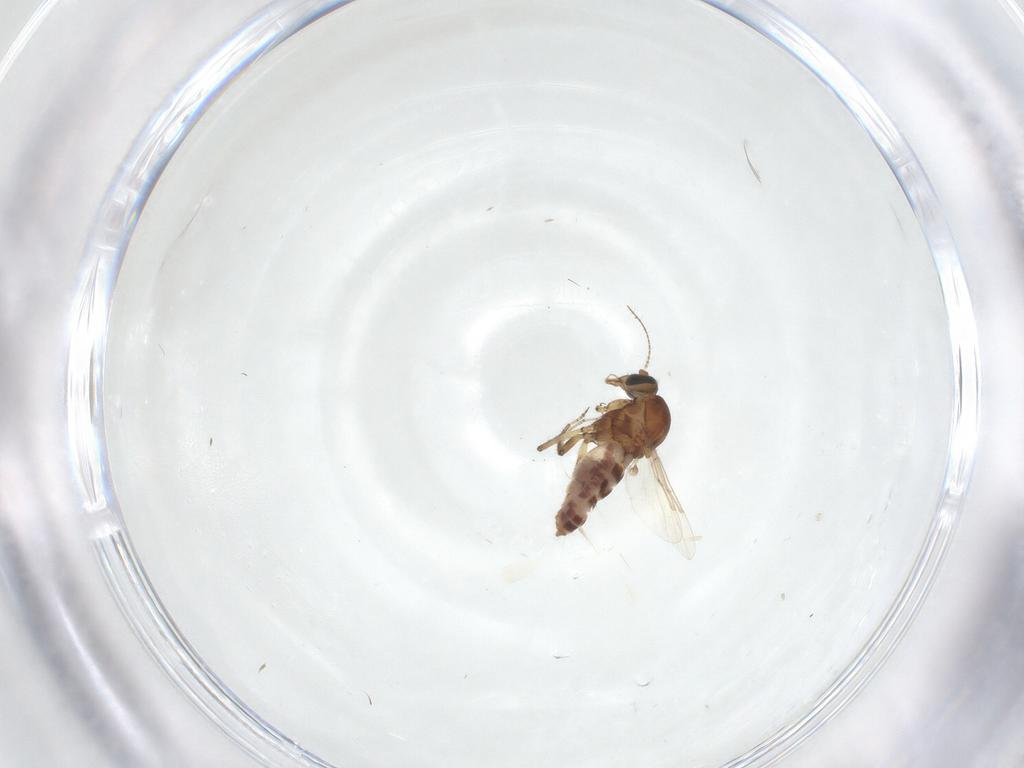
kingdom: Animalia
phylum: Arthropoda
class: Insecta
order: Diptera
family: Ceratopogonidae
